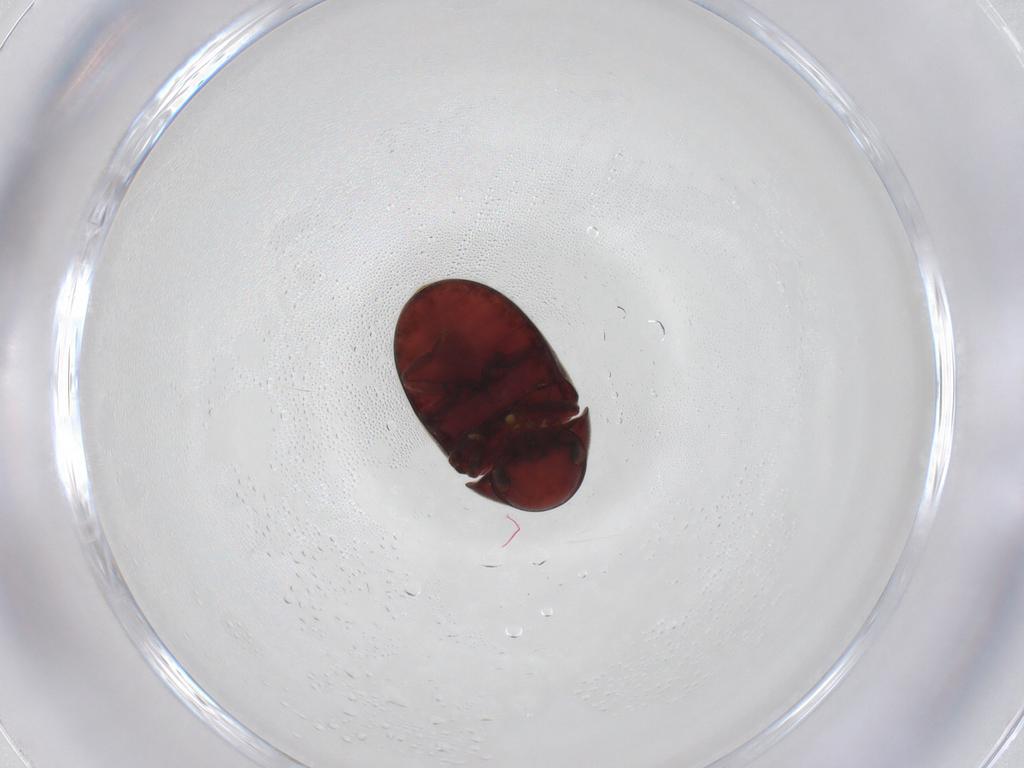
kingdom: Animalia
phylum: Arthropoda
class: Insecta
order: Coleoptera
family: Ptinidae
